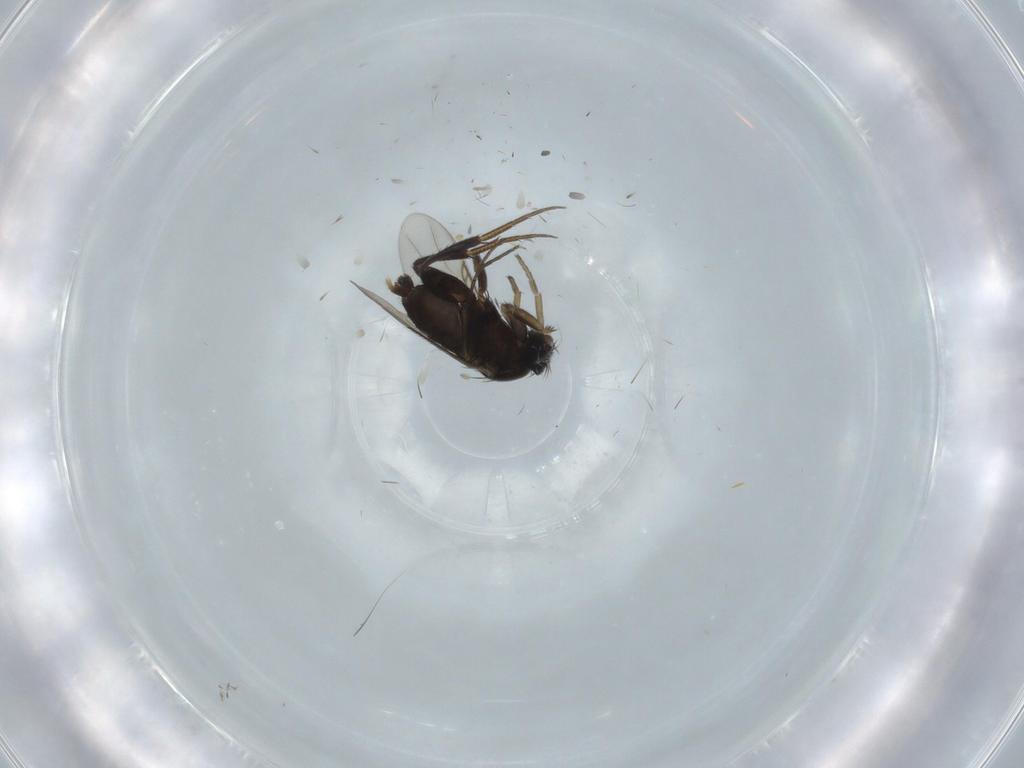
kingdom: Animalia
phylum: Arthropoda
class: Insecta
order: Diptera
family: Phoridae
